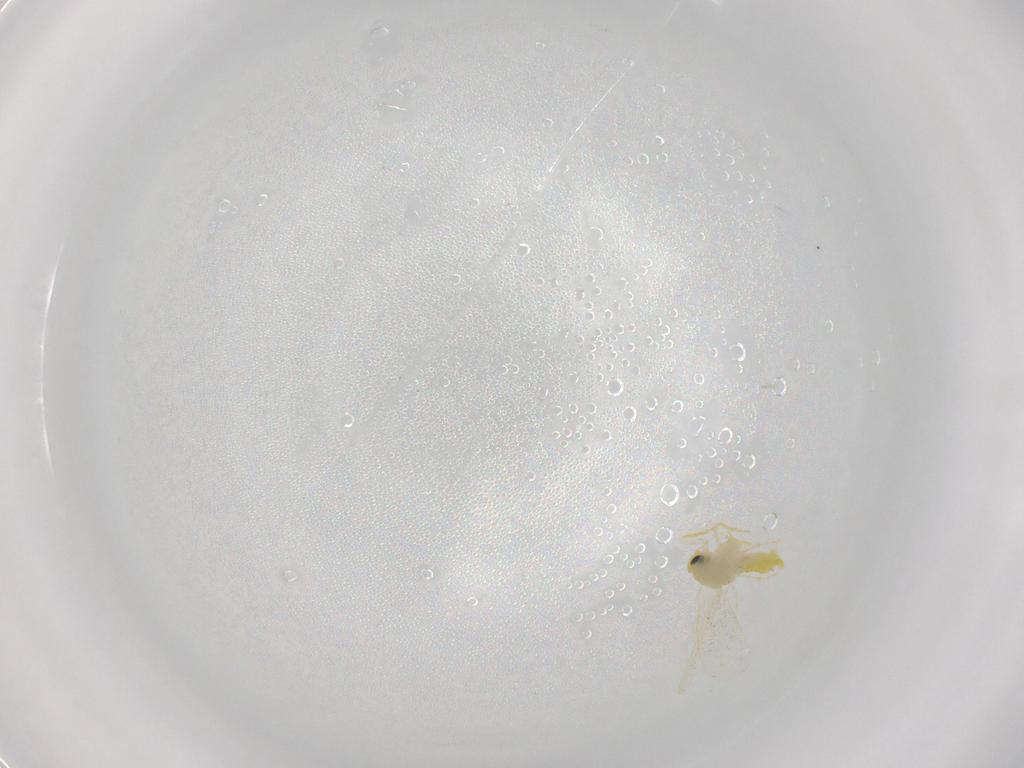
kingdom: Animalia
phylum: Arthropoda
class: Insecta
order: Hemiptera
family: Aleyrodidae
